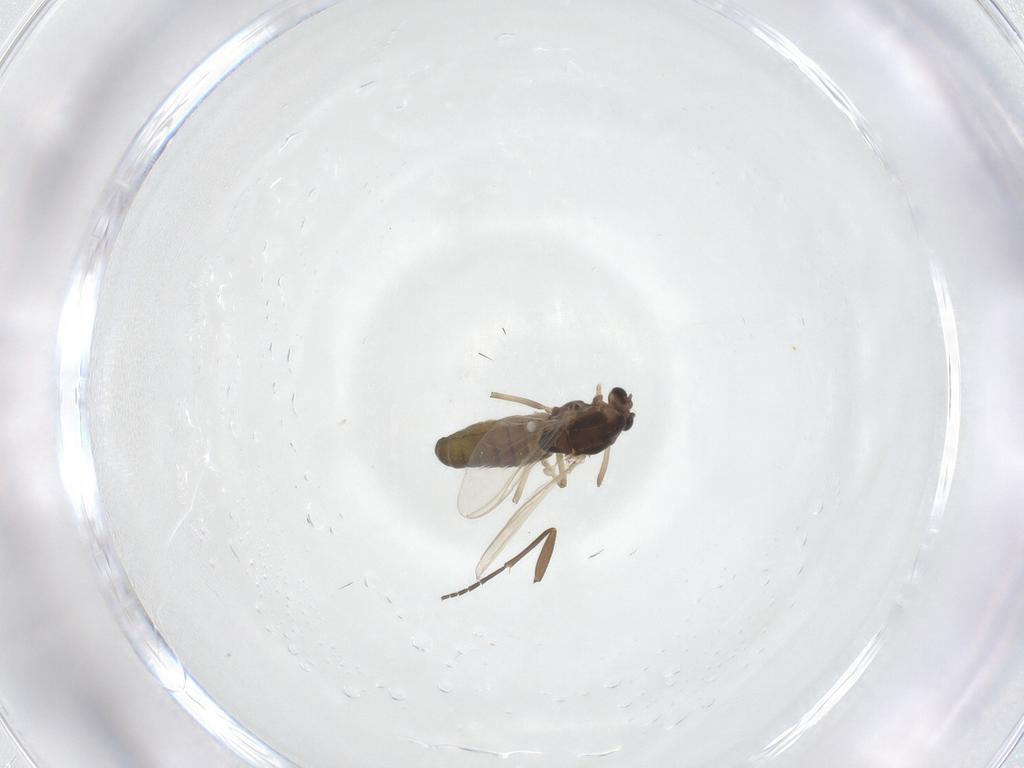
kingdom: Animalia
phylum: Arthropoda
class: Insecta
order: Diptera
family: Chironomidae
